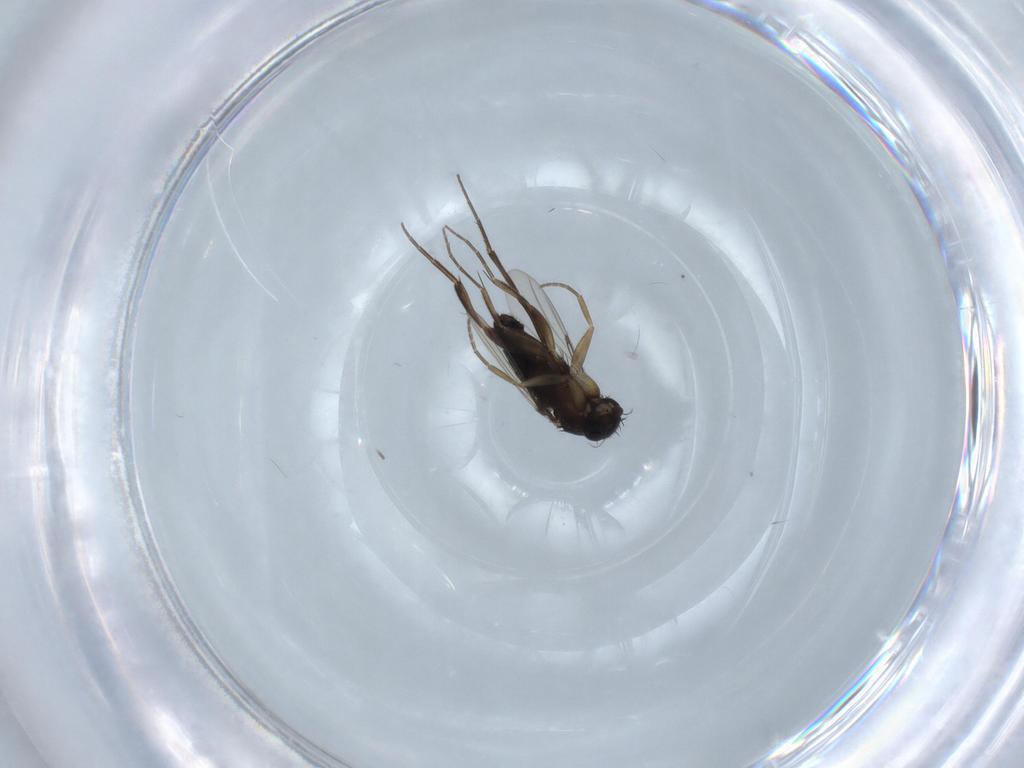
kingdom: Animalia
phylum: Arthropoda
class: Insecta
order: Diptera
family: Phoridae
